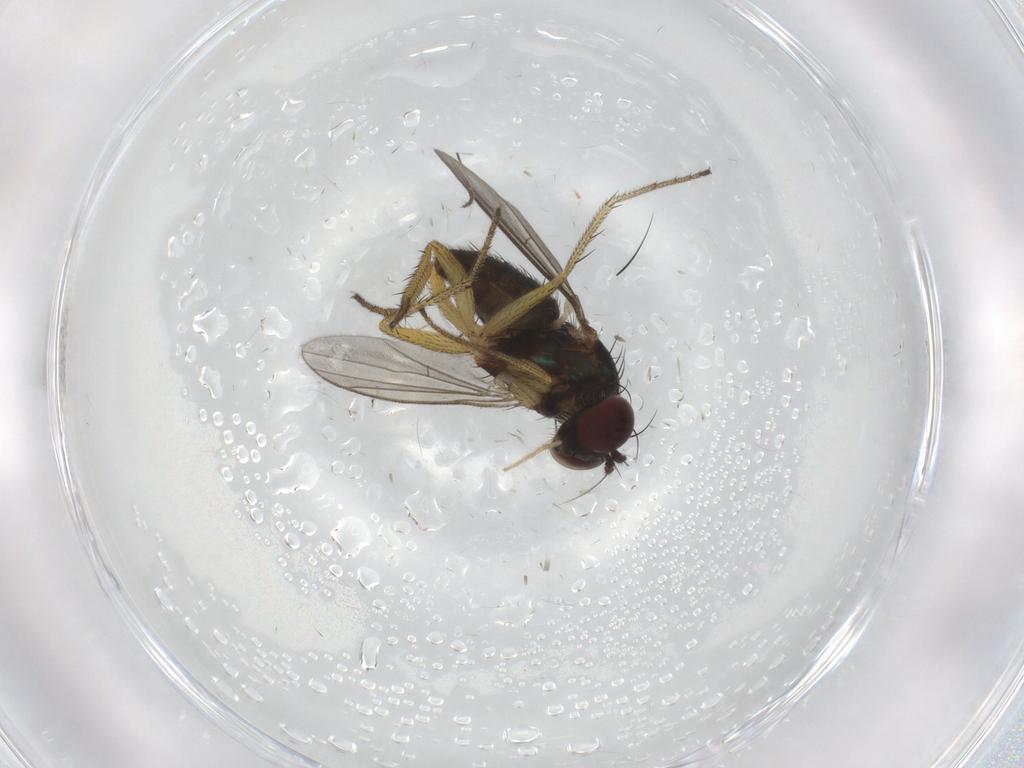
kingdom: Animalia
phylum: Arthropoda
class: Insecta
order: Diptera
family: Dolichopodidae
